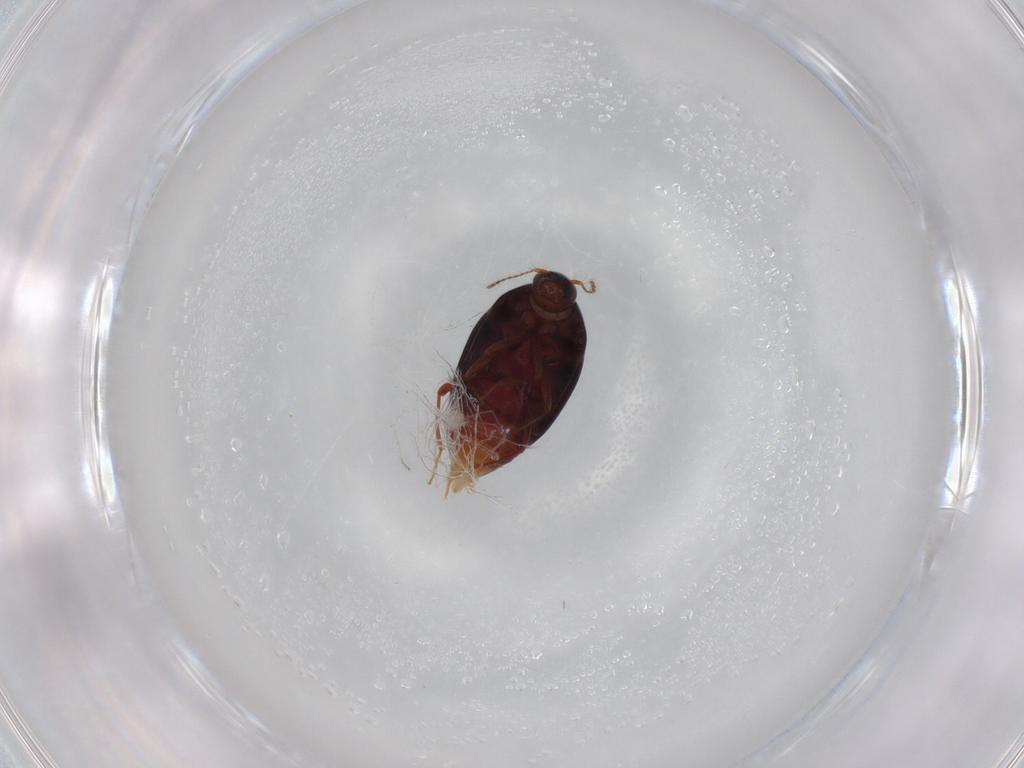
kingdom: Animalia
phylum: Arthropoda
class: Insecta
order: Coleoptera
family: Staphylinidae
